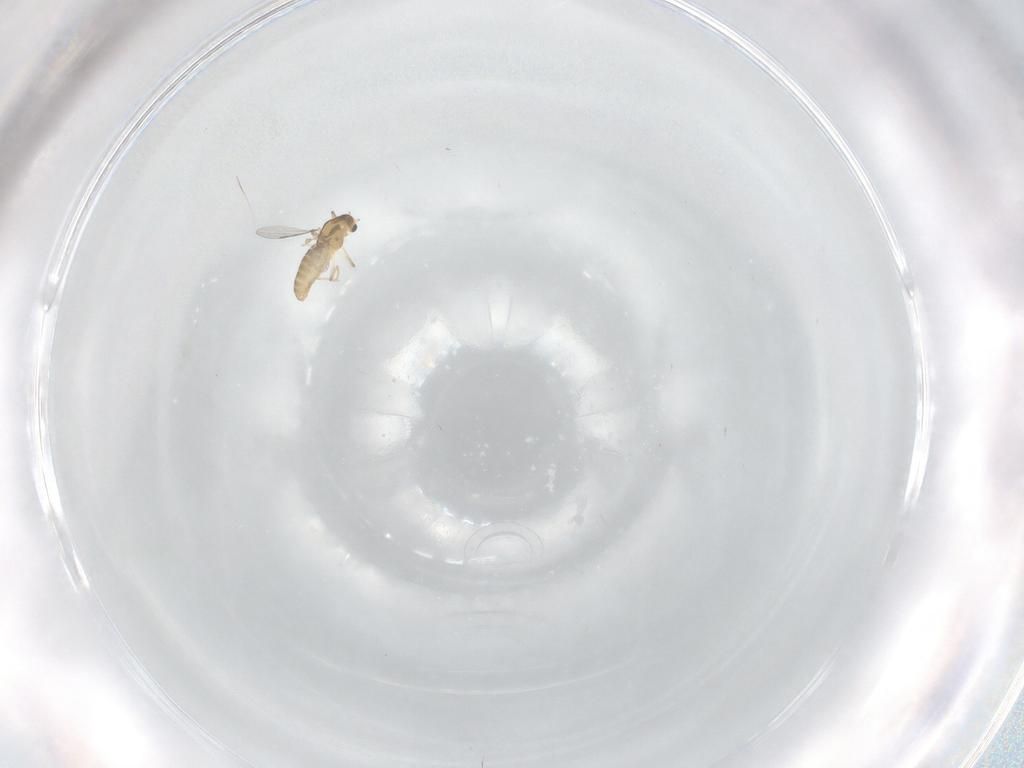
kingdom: Animalia
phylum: Arthropoda
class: Insecta
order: Diptera
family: Chironomidae
